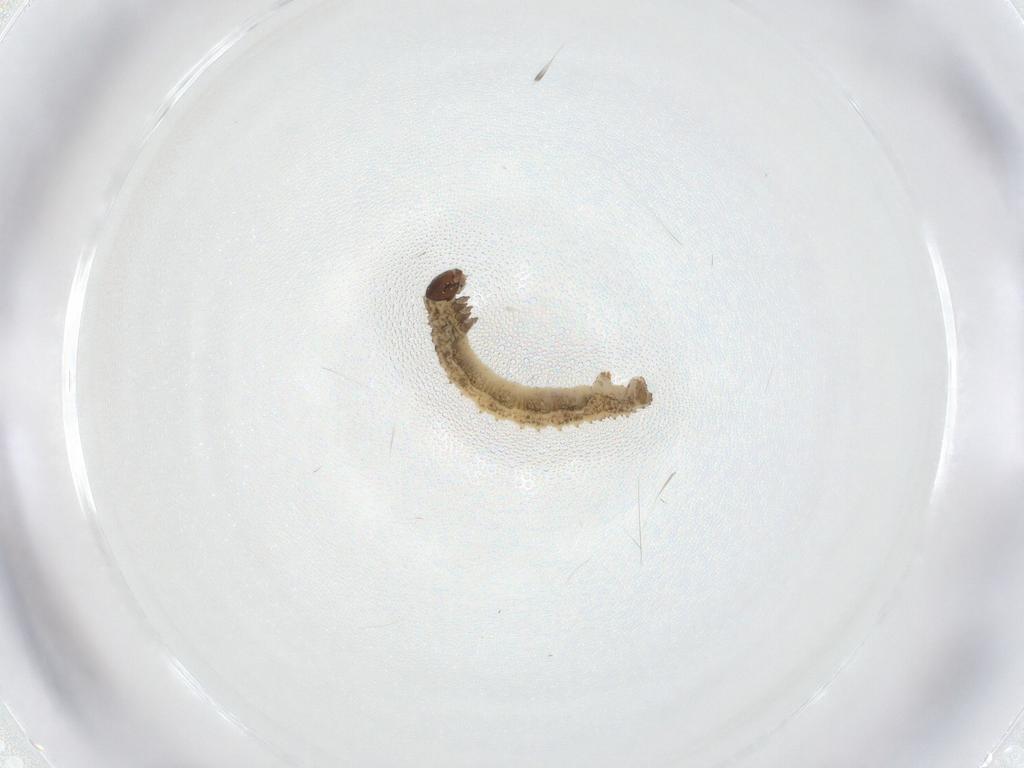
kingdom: Animalia
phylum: Arthropoda
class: Insecta
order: Lepidoptera
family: Geometridae
